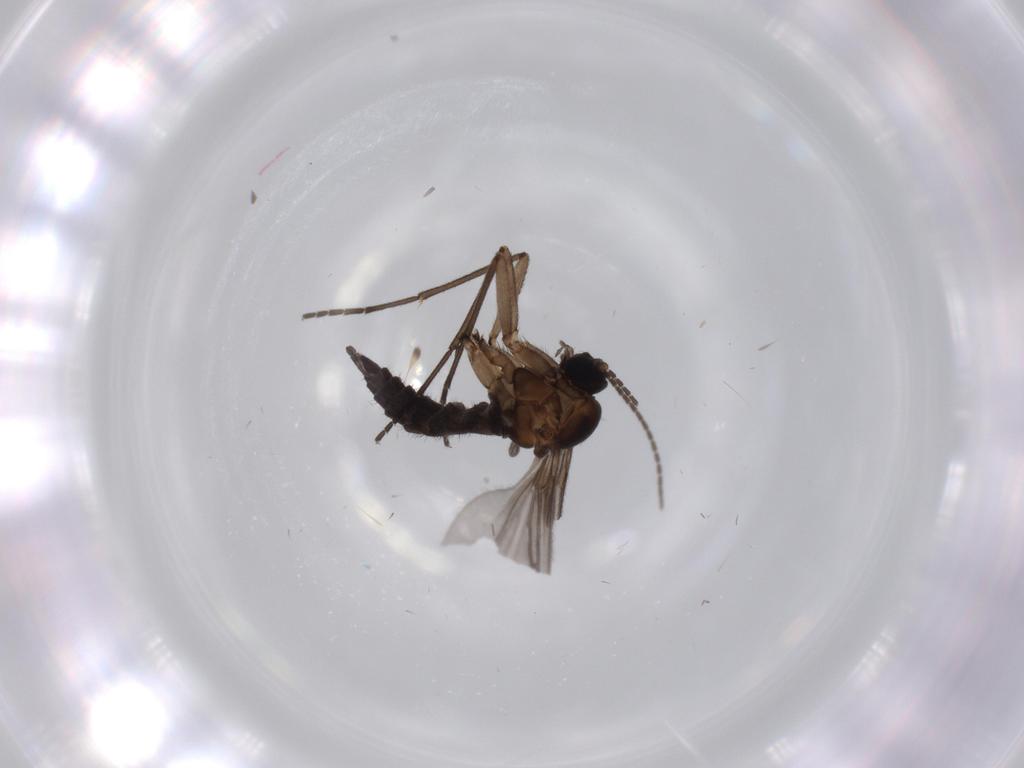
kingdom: Animalia
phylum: Arthropoda
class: Insecta
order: Diptera
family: Sciaridae
